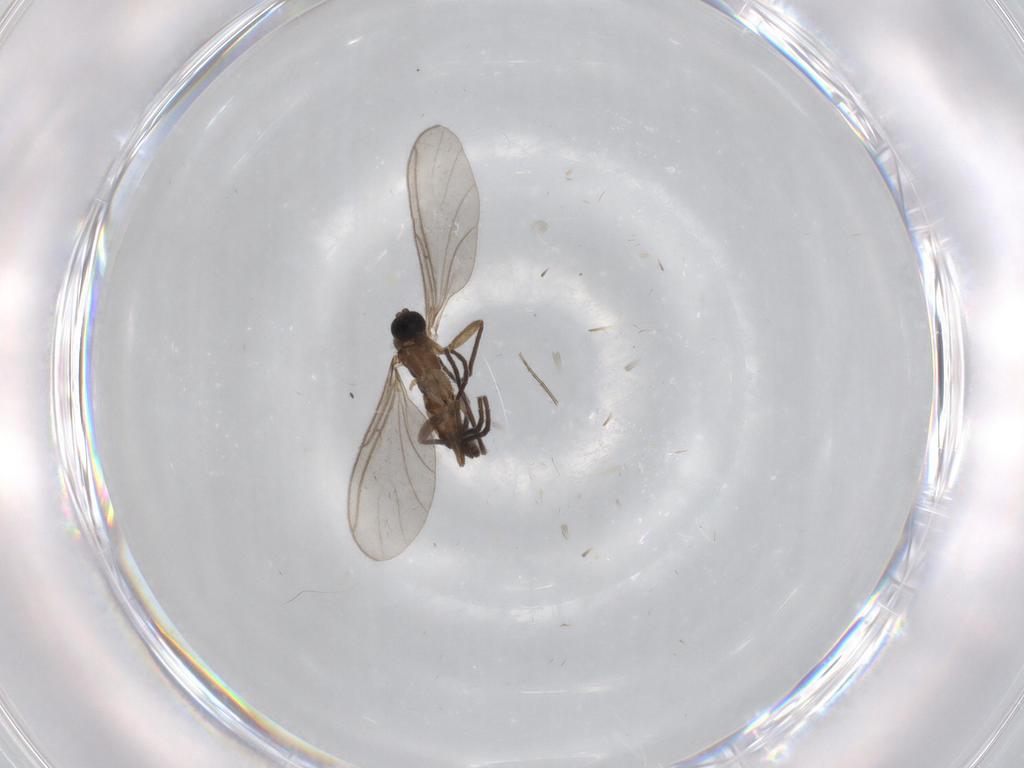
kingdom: Animalia
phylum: Arthropoda
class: Insecta
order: Diptera
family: Sciaridae
